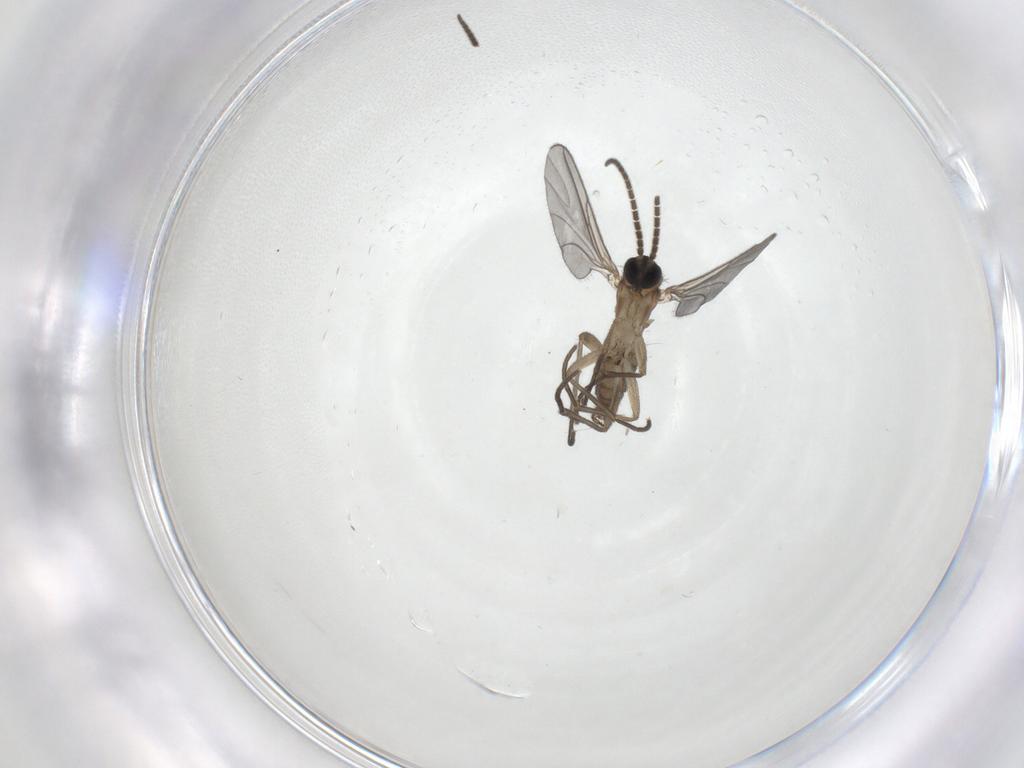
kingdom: Animalia
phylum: Arthropoda
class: Insecta
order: Diptera
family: Sciaridae
